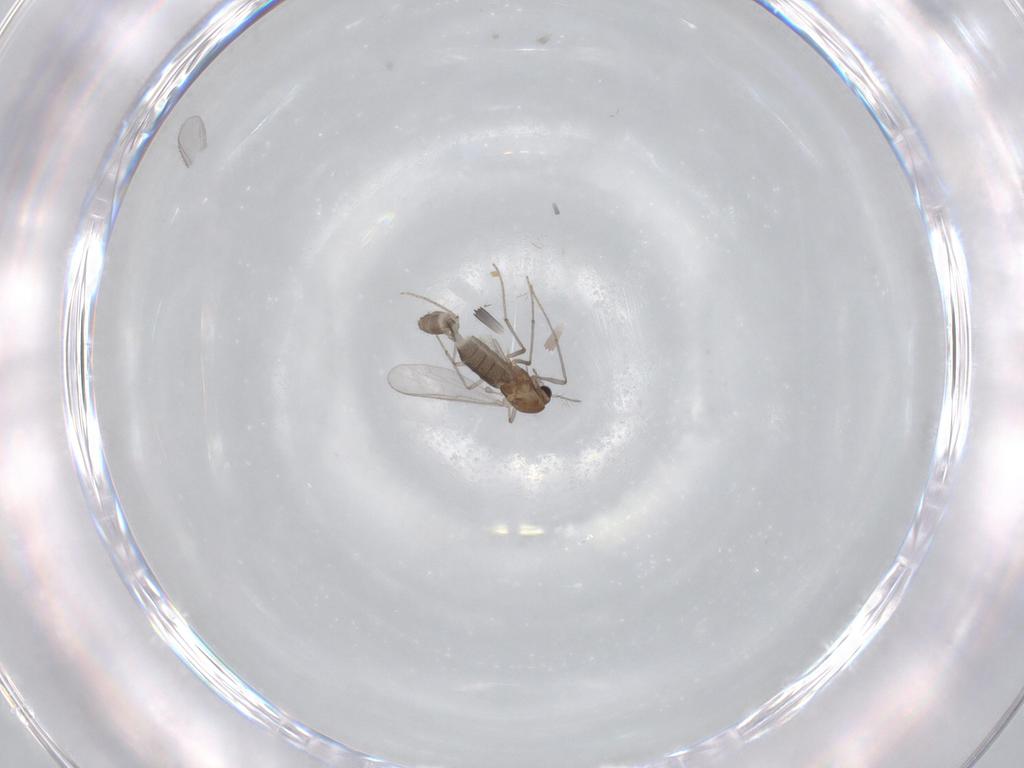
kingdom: Animalia
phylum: Arthropoda
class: Insecta
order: Diptera
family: Chironomidae
